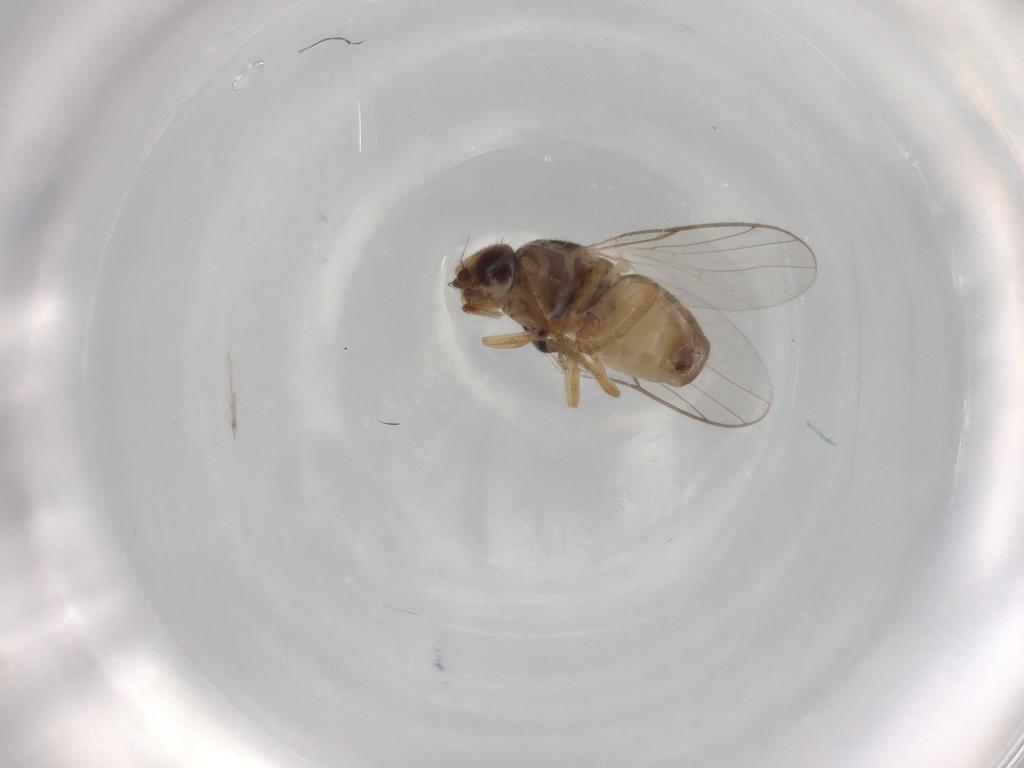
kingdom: Animalia
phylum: Arthropoda
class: Insecta
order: Diptera
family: Chloropidae
